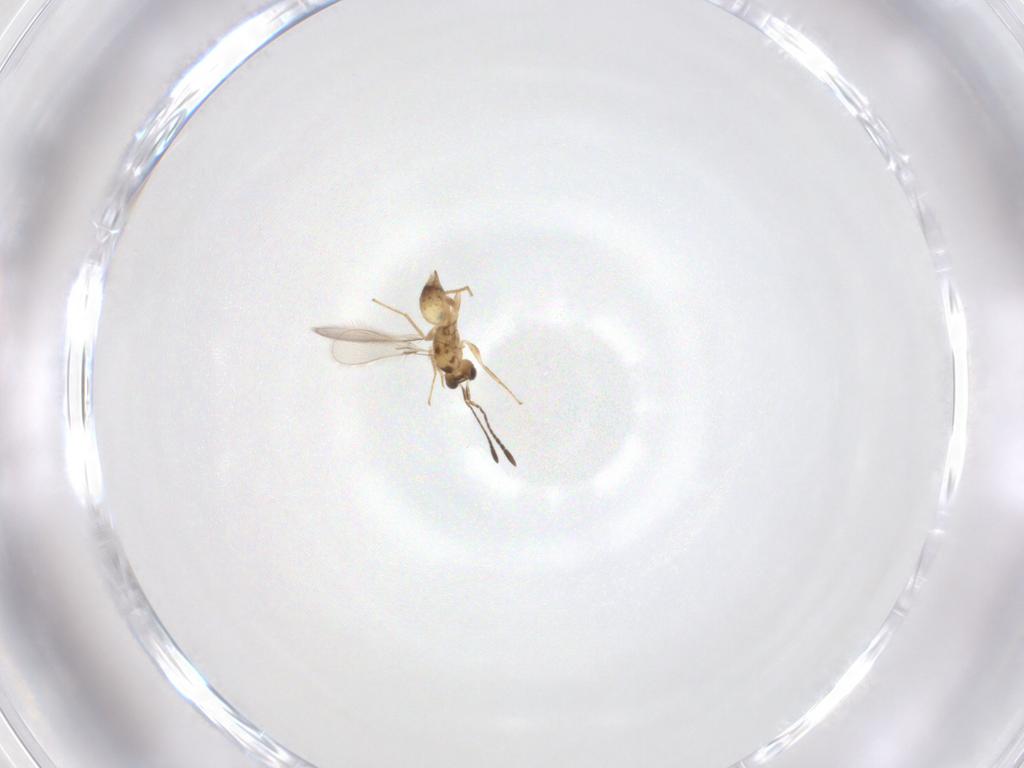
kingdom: Animalia
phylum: Arthropoda
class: Insecta
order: Hymenoptera
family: Mymaridae
